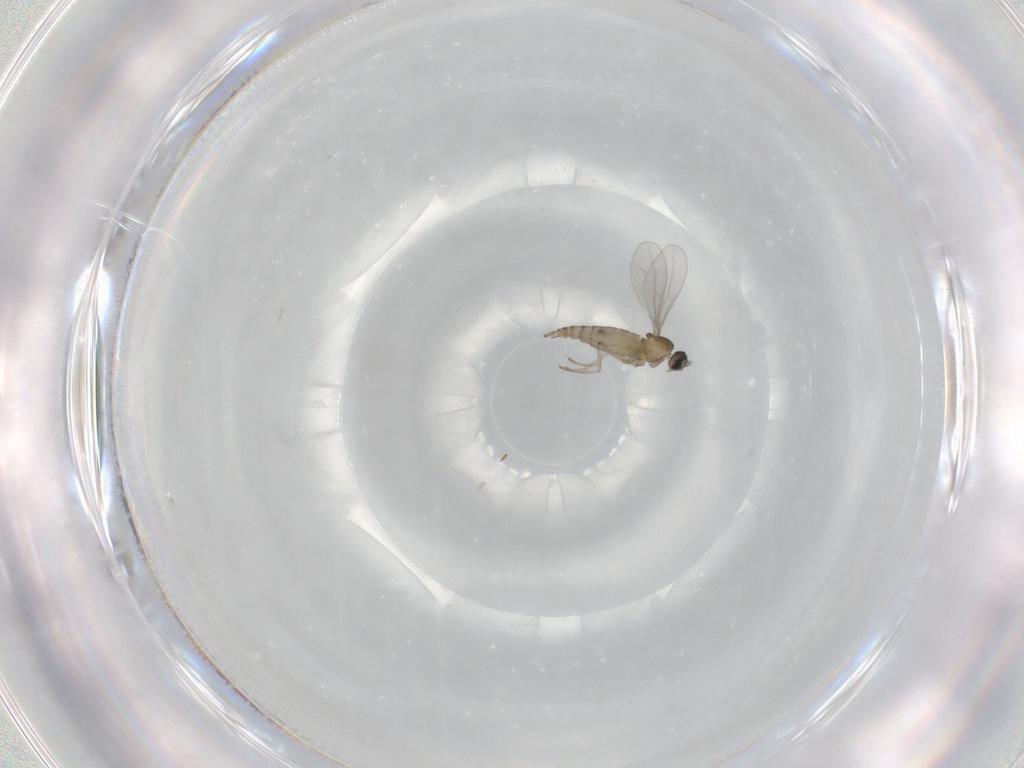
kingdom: Animalia
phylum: Arthropoda
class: Insecta
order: Diptera
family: Cecidomyiidae
